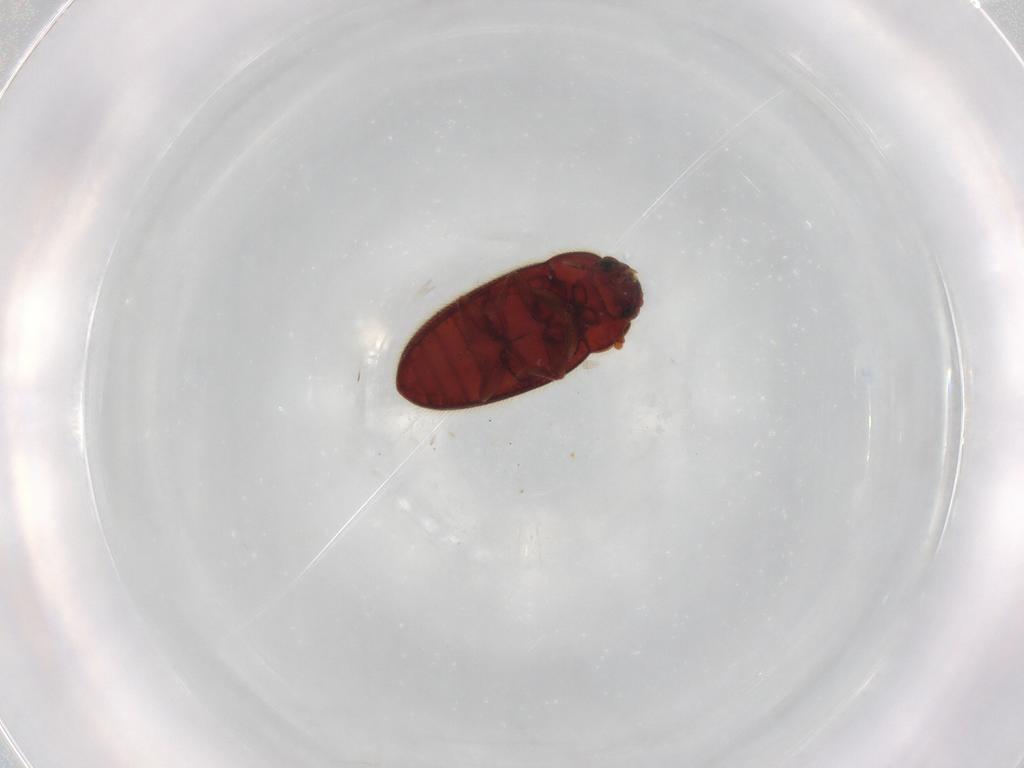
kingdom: Animalia
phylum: Arthropoda
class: Insecta
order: Coleoptera
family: Biphyllidae
